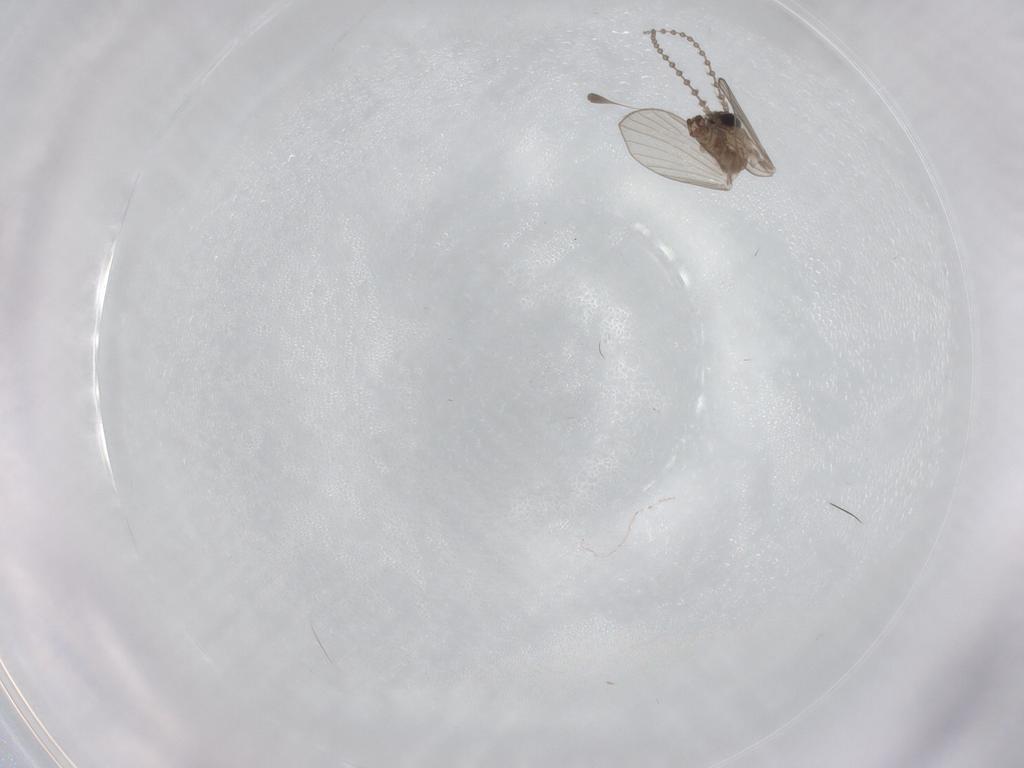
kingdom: Animalia
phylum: Arthropoda
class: Insecta
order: Diptera
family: Psychodidae
